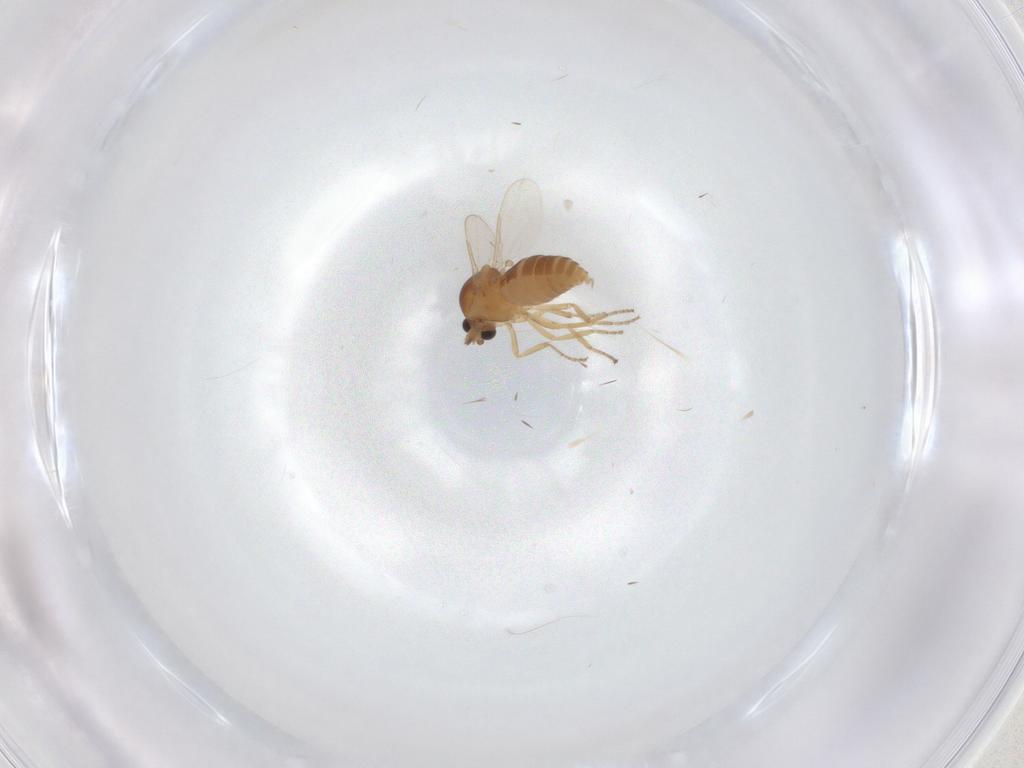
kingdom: Animalia
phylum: Arthropoda
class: Insecta
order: Diptera
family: Ceratopogonidae
